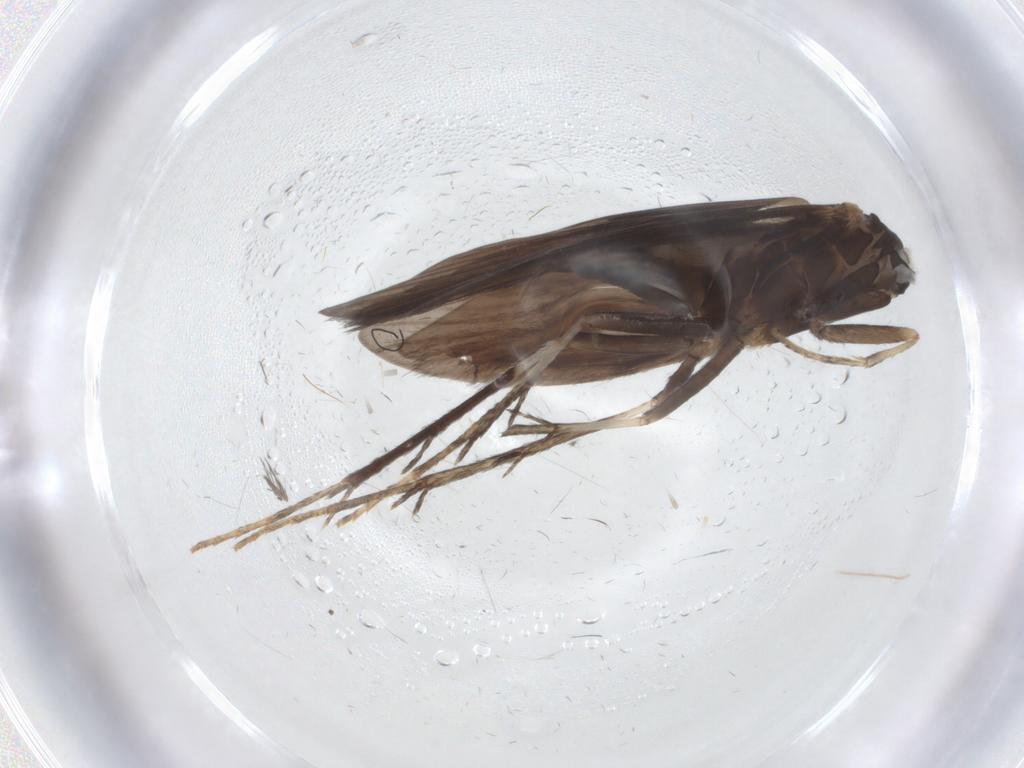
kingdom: Animalia
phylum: Arthropoda
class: Insecta
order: Trichoptera
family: Xiphocentronidae
